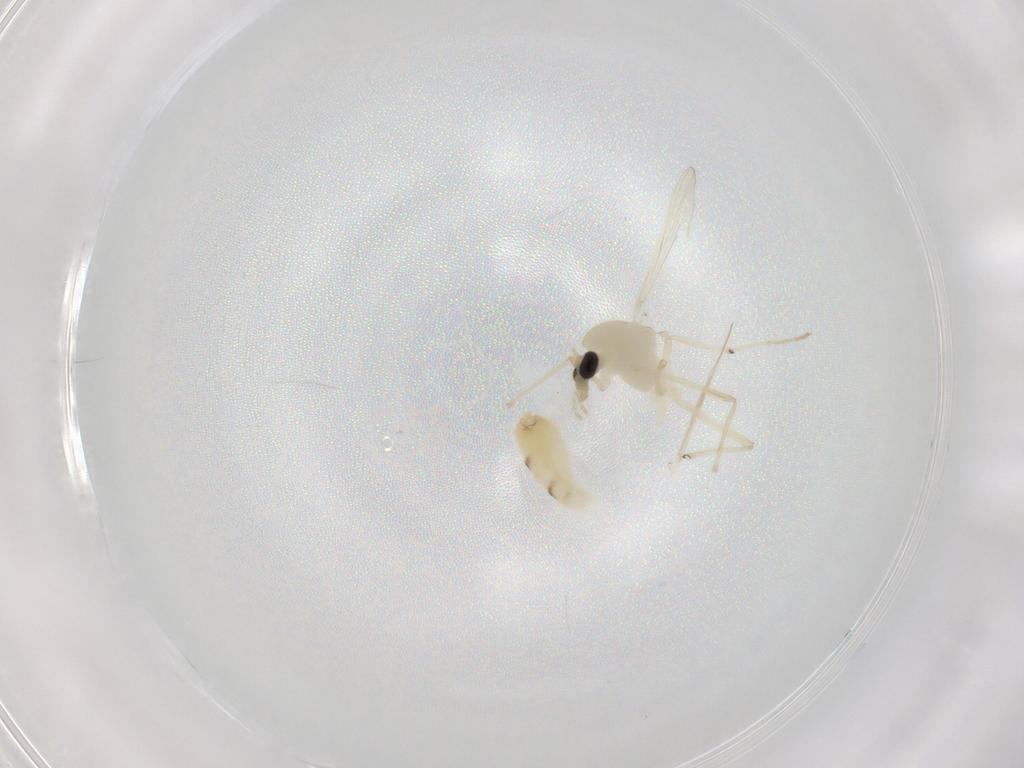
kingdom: Animalia
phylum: Arthropoda
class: Insecta
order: Diptera
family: Chironomidae
